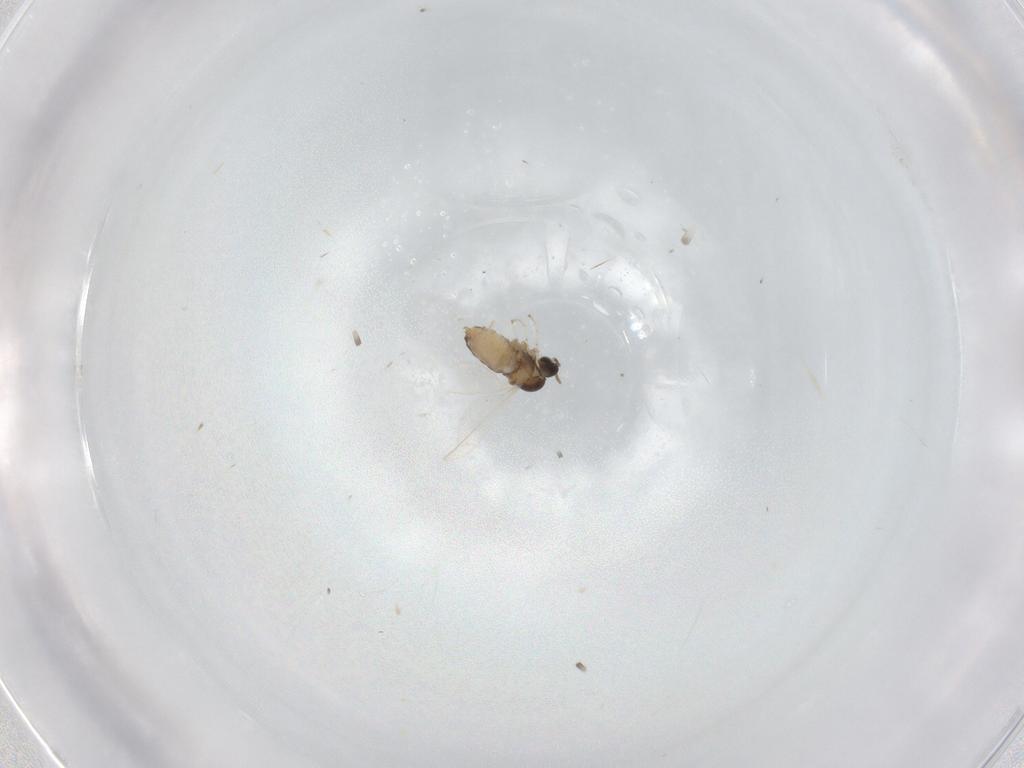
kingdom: Animalia
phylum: Arthropoda
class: Insecta
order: Diptera
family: Cecidomyiidae
